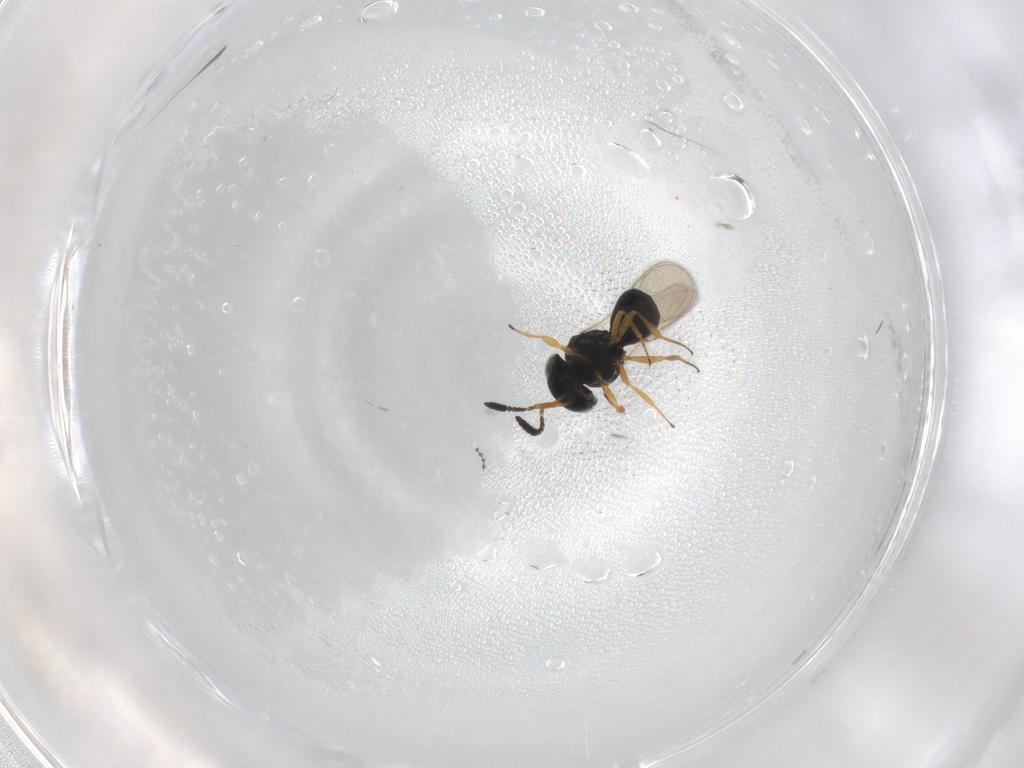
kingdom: Animalia
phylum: Arthropoda
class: Insecta
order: Hymenoptera
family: Scelionidae
